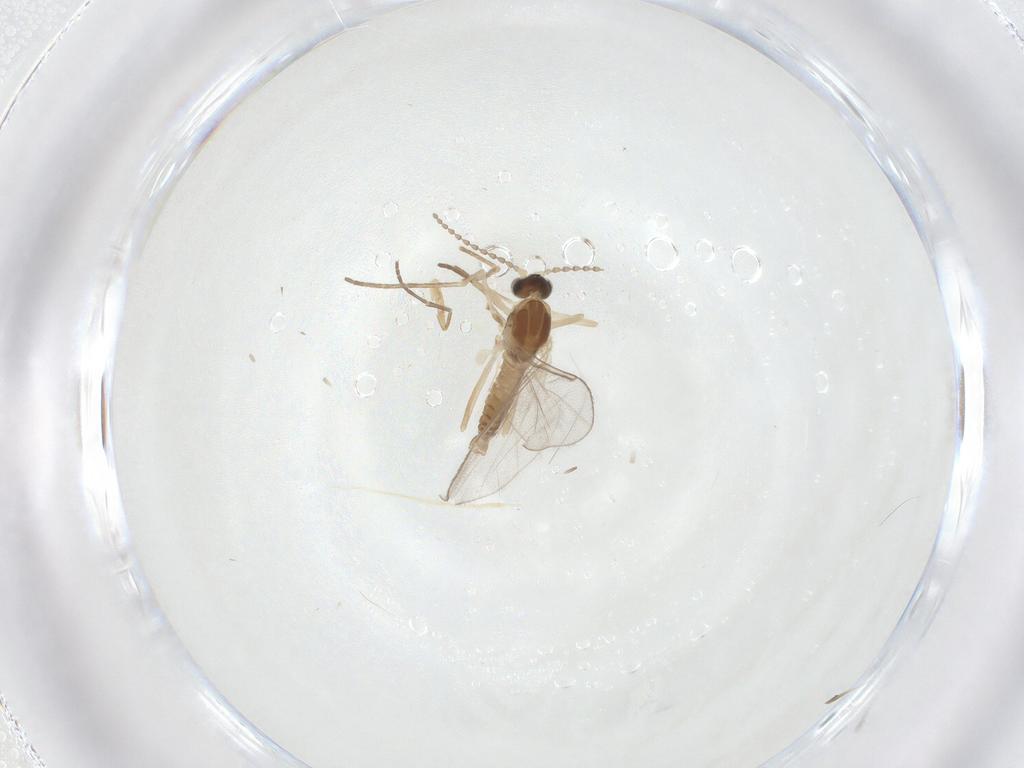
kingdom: Animalia
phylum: Arthropoda
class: Insecta
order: Diptera
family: Cecidomyiidae
